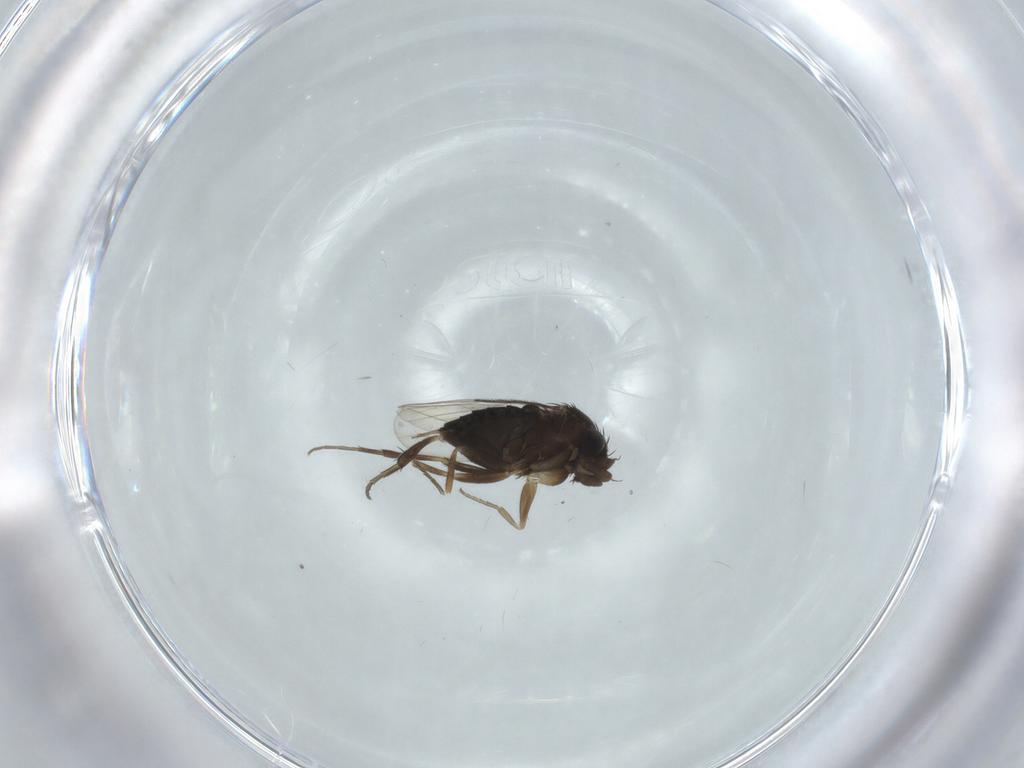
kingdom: Animalia
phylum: Arthropoda
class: Insecta
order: Diptera
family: Phoridae
